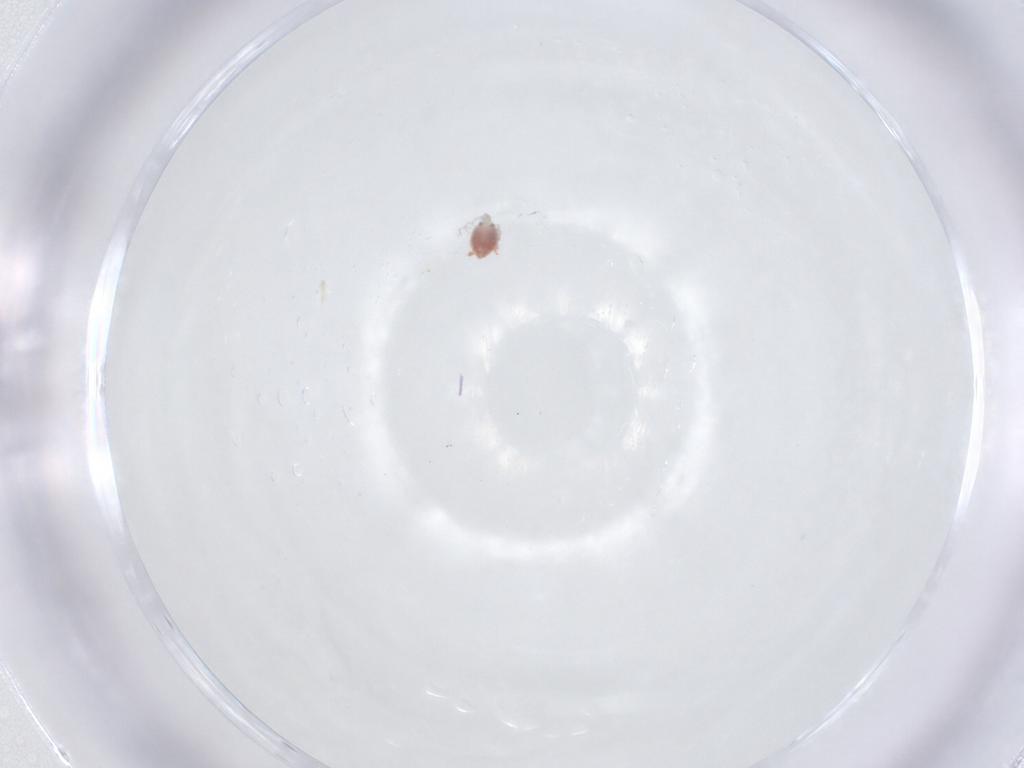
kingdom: Animalia
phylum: Arthropoda
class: Arachnida
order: Trombidiformes
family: Pionidae
